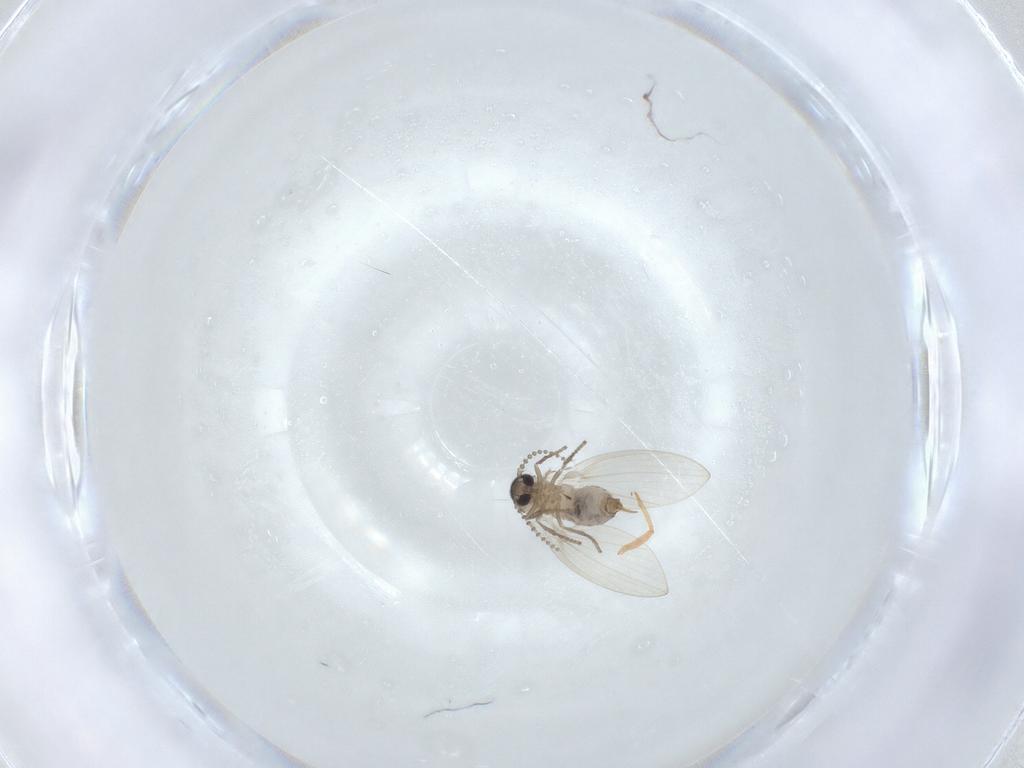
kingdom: Animalia
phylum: Arthropoda
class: Insecta
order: Diptera
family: Psychodidae
